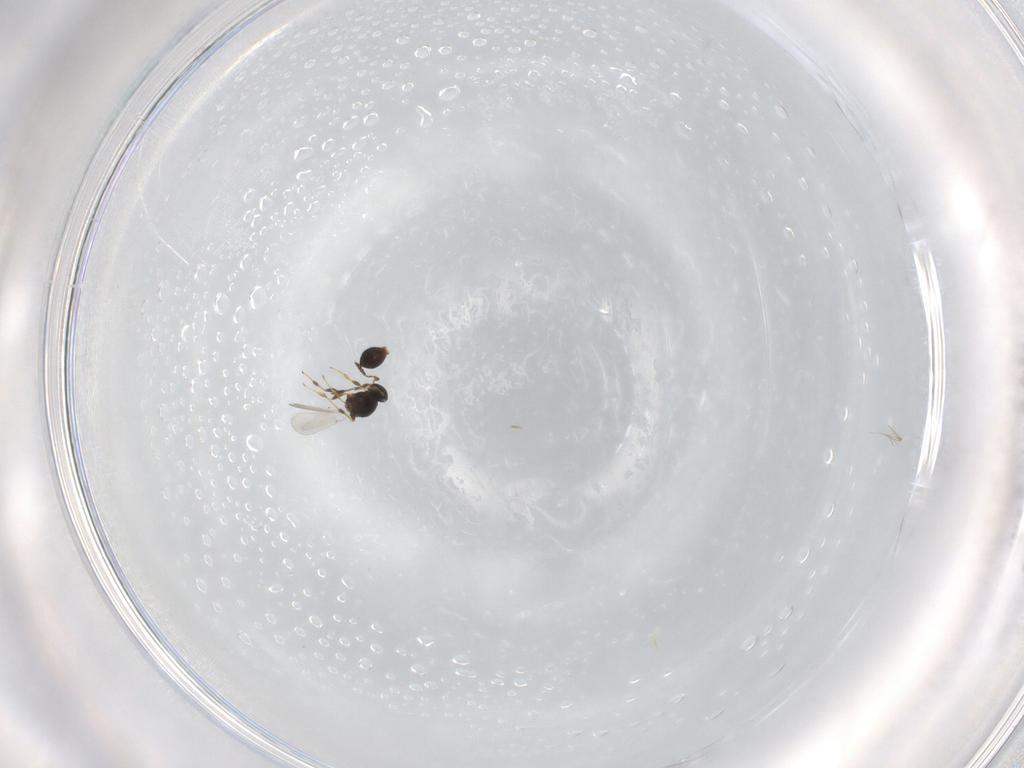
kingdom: Animalia
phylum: Arthropoda
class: Insecta
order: Hymenoptera
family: Platygastridae
